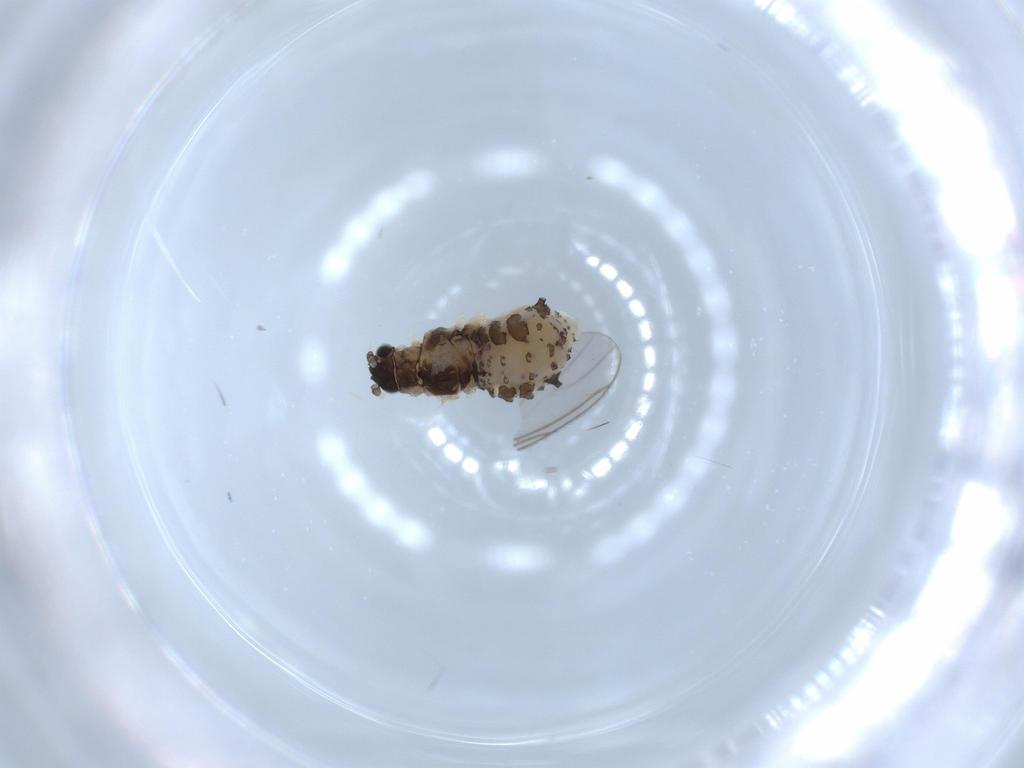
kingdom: Animalia
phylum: Arthropoda
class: Insecta
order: Hemiptera
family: Aphididae
